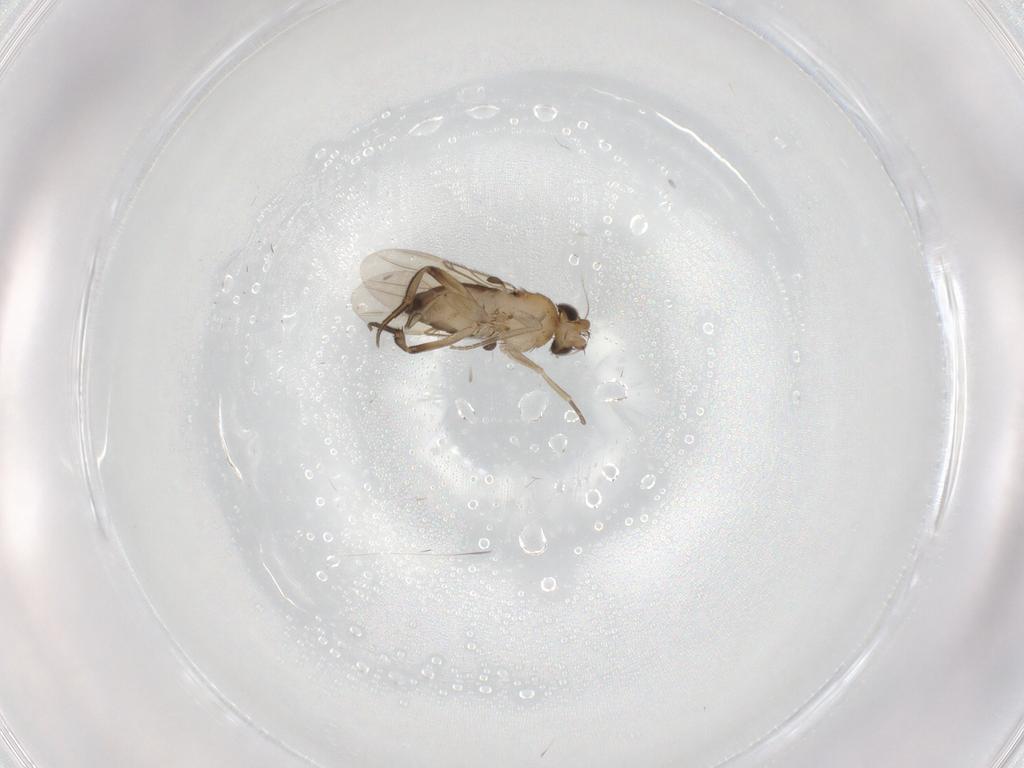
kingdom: Animalia
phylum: Arthropoda
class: Insecta
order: Diptera
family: Phoridae
